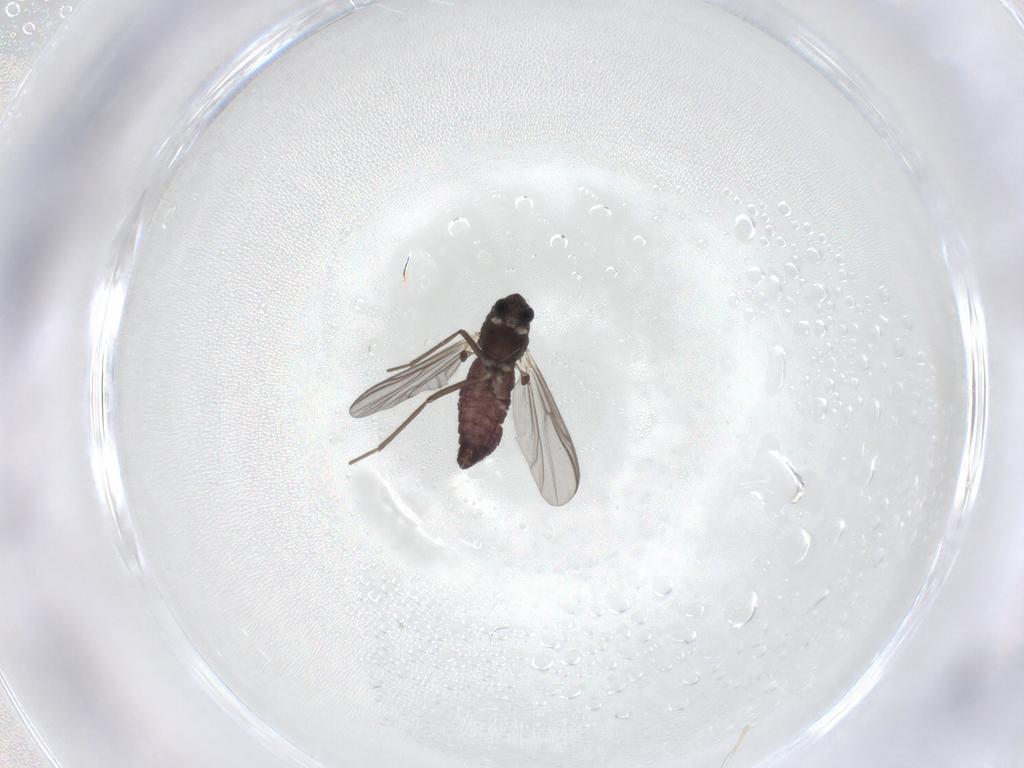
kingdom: Animalia
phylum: Arthropoda
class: Insecta
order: Diptera
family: Chironomidae
